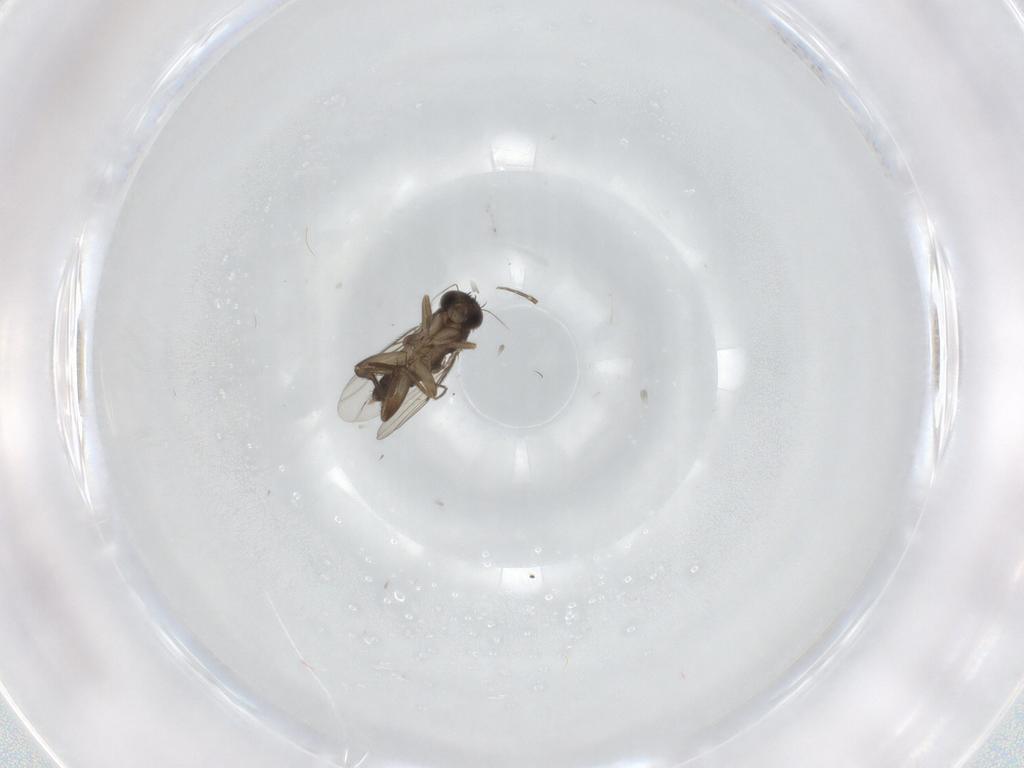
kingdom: Animalia
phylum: Arthropoda
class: Insecta
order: Diptera
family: Phoridae
